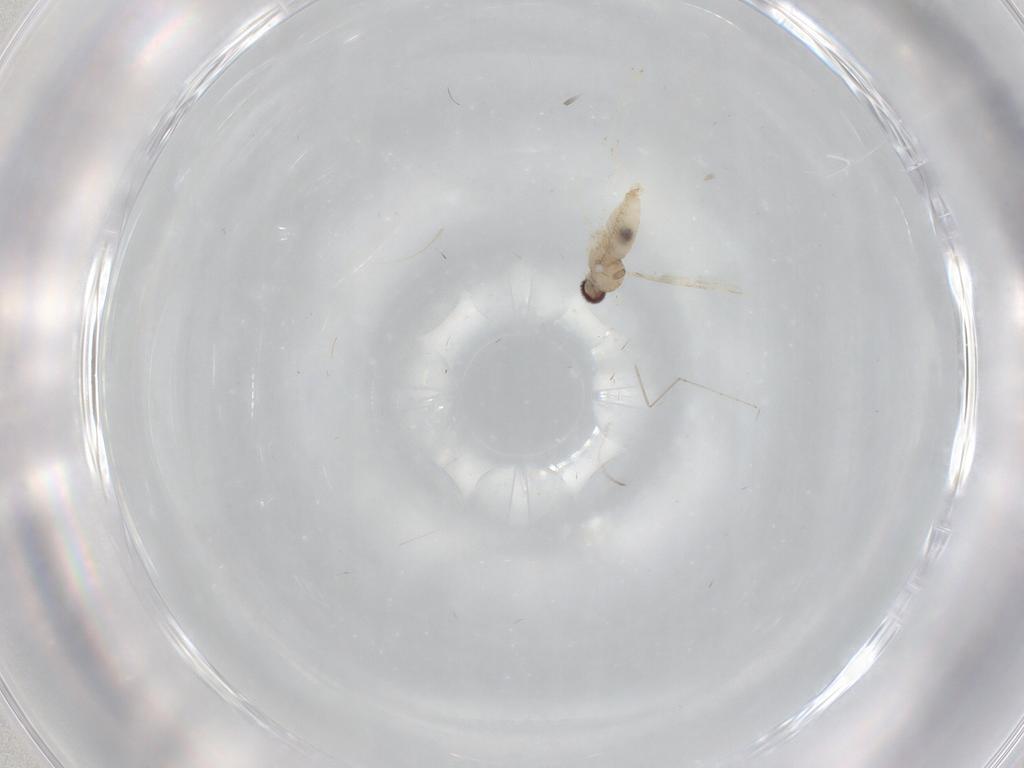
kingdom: Animalia
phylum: Arthropoda
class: Insecta
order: Diptera
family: Cecidomyiidae
